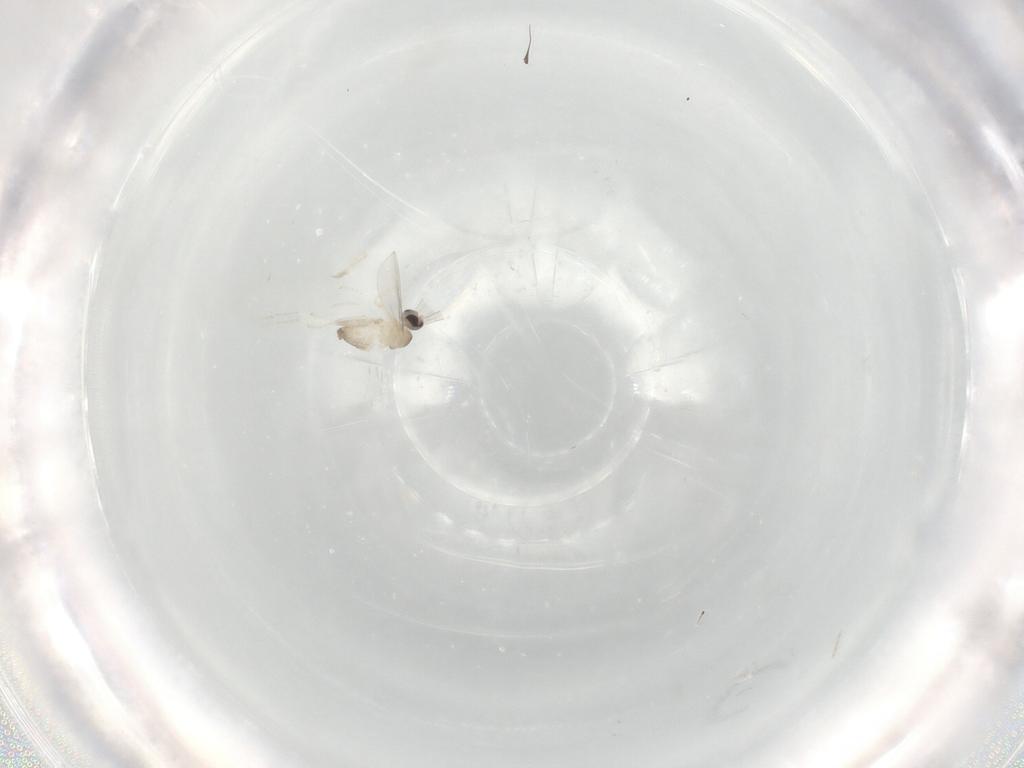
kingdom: Animalia
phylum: Arthropoda
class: Insecta
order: Diptera
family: Cecidomyiidae
